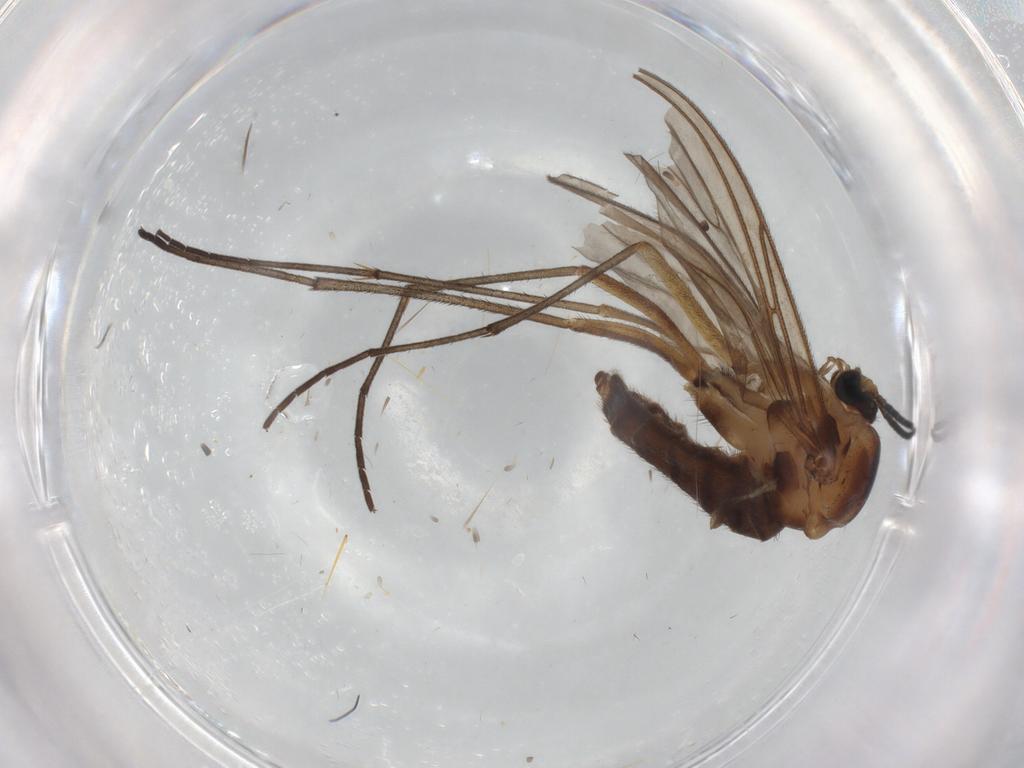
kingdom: Animalia
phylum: Arthropoda
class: Insecta
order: Diptera
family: Sciaridae
